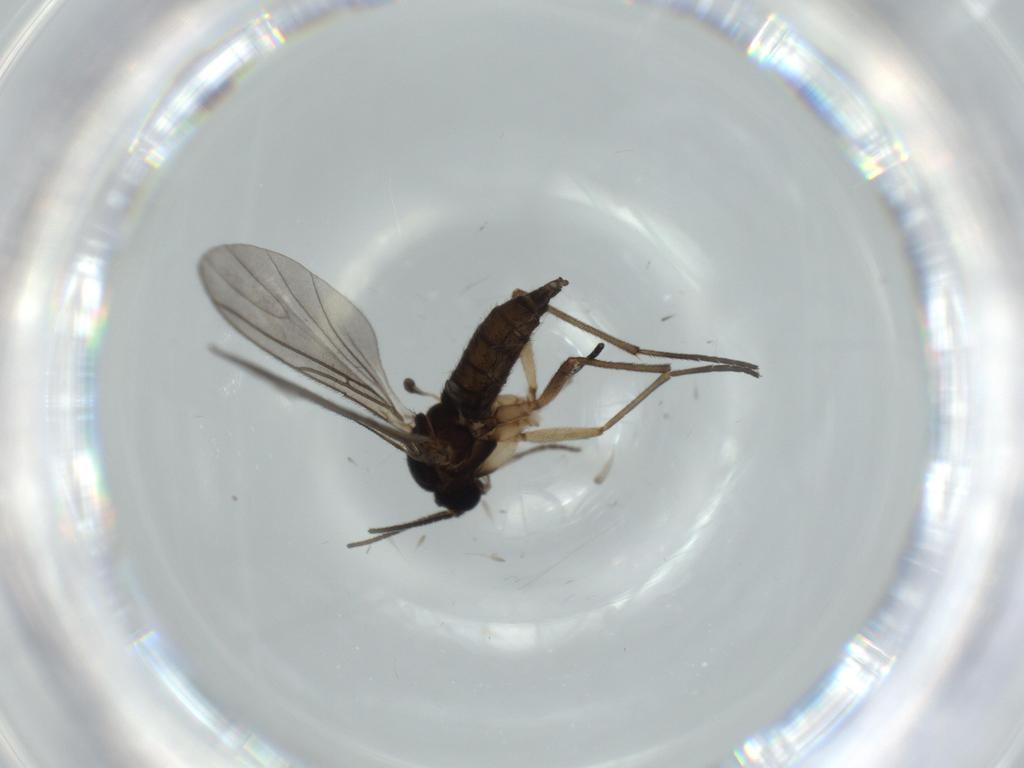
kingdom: Animalia
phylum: Arthropoda
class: Insecta
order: Diptera
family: Sciaridae
